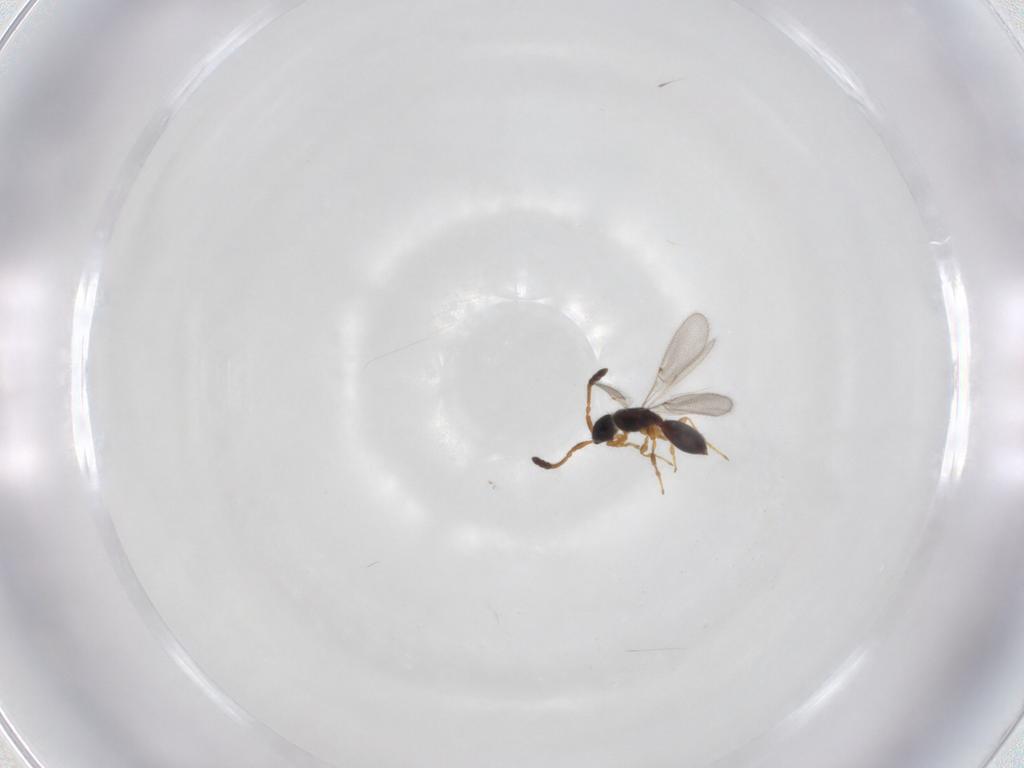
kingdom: Animalia
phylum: Arthropoda
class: Insecta
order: Hymenoptera
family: Diapriidae
